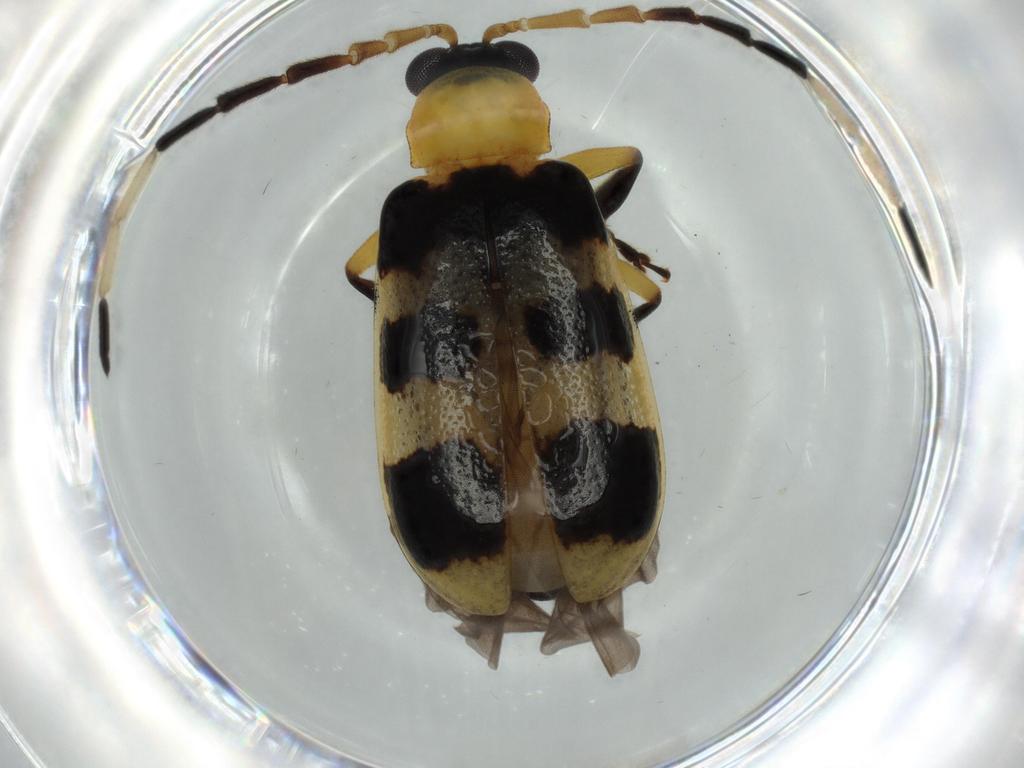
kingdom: Animalia
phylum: Arthropoda
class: Insecta
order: Coleoptera
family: Chrysomelidae
